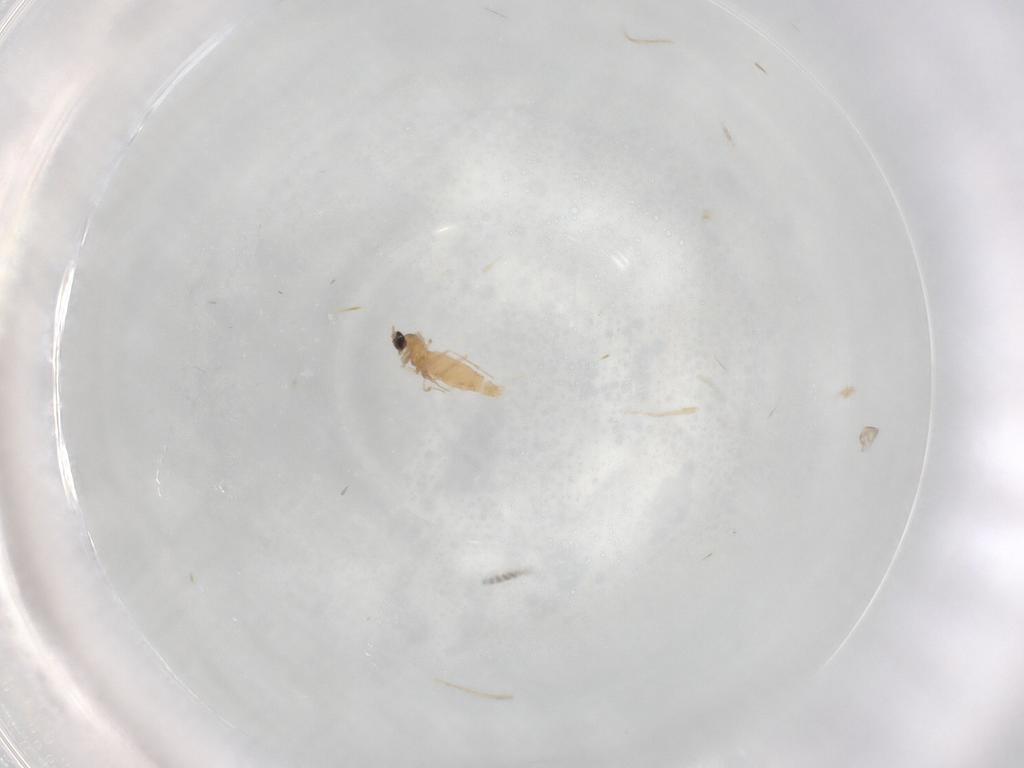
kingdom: Animalia
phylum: Arthropoda
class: Insecta
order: Diptera
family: Cecidomyiidae
